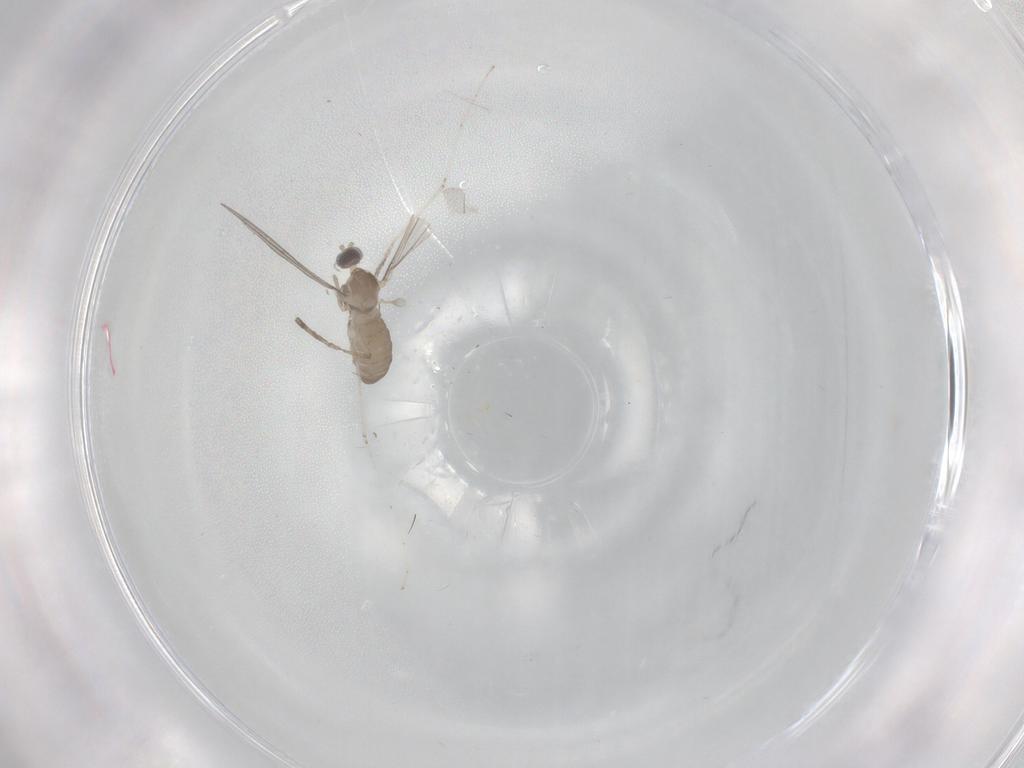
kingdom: Animalia
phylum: Arthropoda
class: Insecta
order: Diptera
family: Cecidomyiidae
